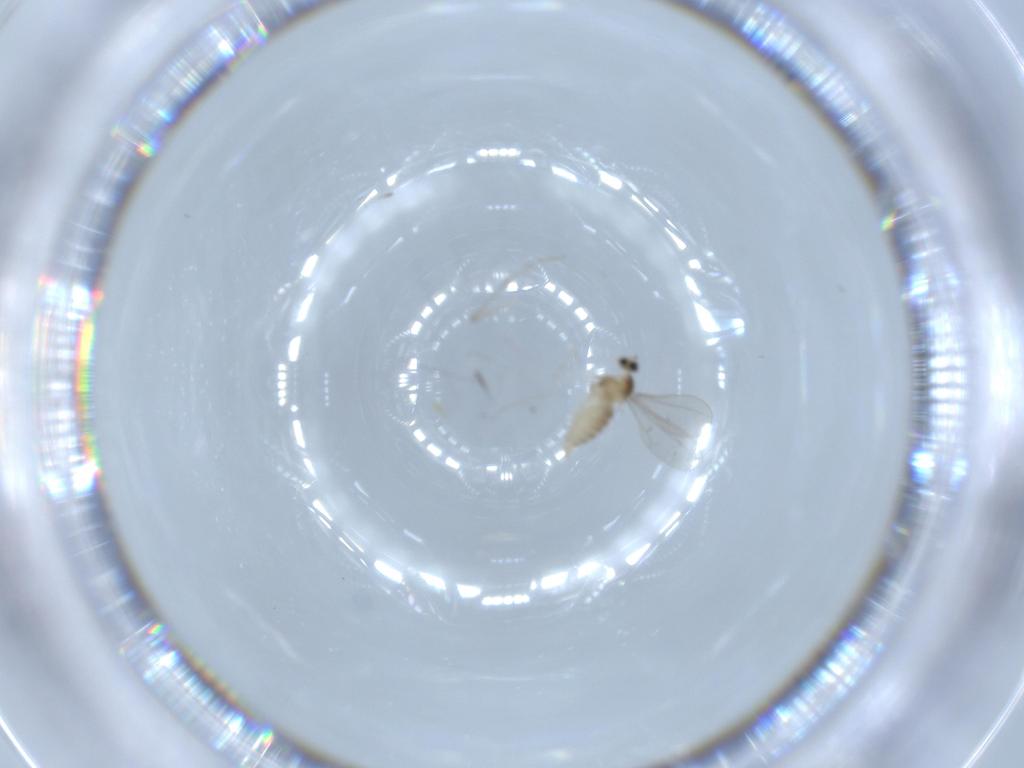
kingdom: Animalia
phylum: Arthropoda
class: Insecta
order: Diptera
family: Cecidomyiidae
